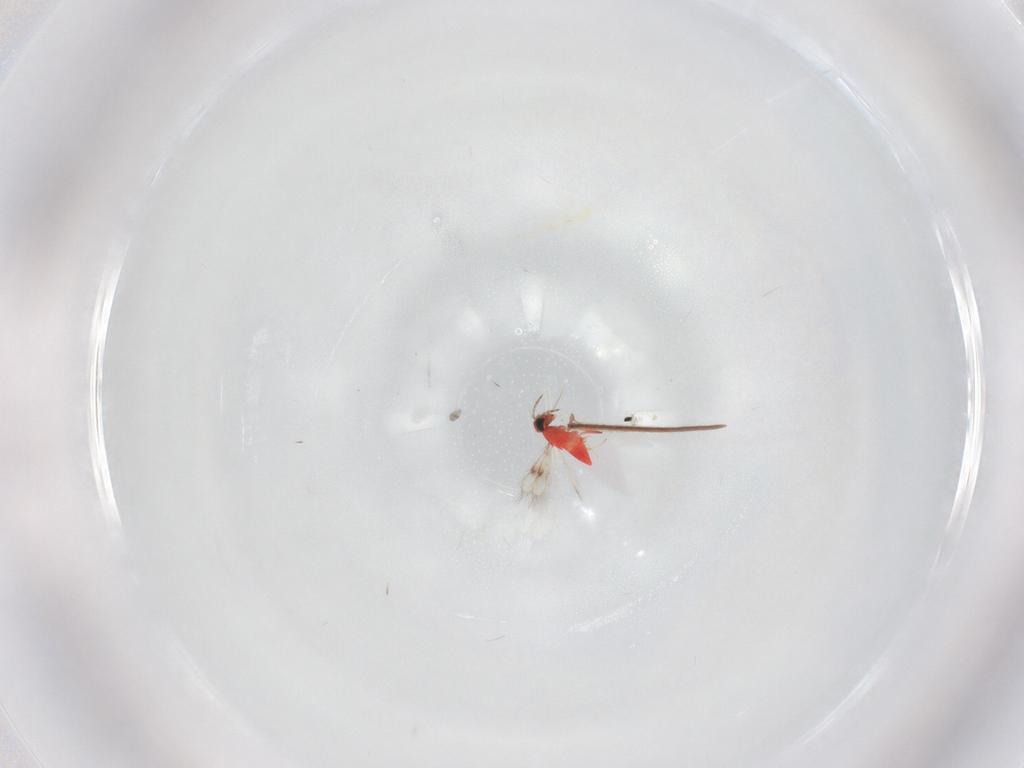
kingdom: Animalia
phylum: Arthropoda
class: Insecta
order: Hymenoptera
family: Trichogrammatidae
